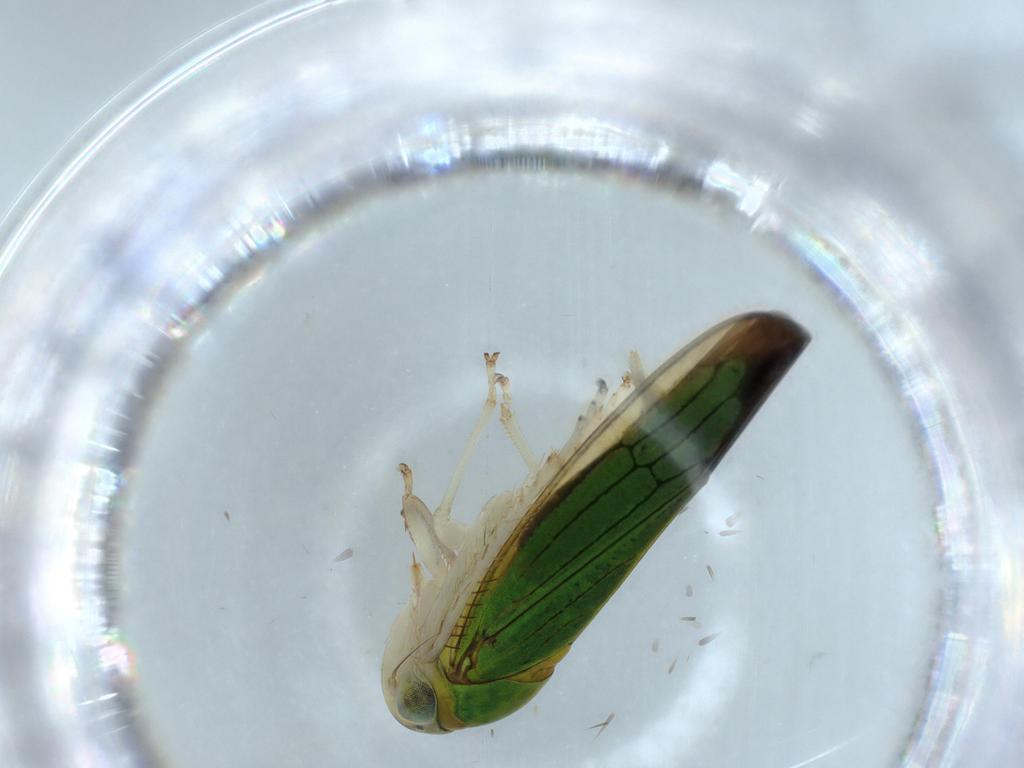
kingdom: Animalia
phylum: Arthropoda
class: Insecta
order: Hemiptera
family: Cicadellidae
